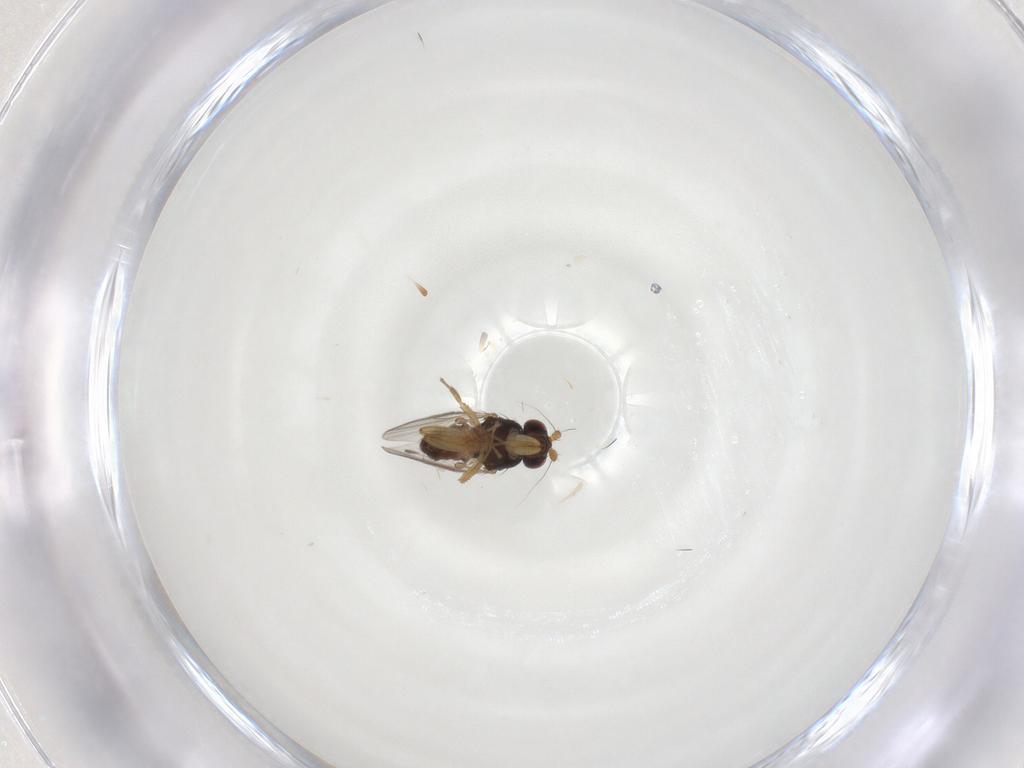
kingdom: Animalia
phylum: Arthropoda
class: Insecta
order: Diptera
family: Sphaeroceridae
